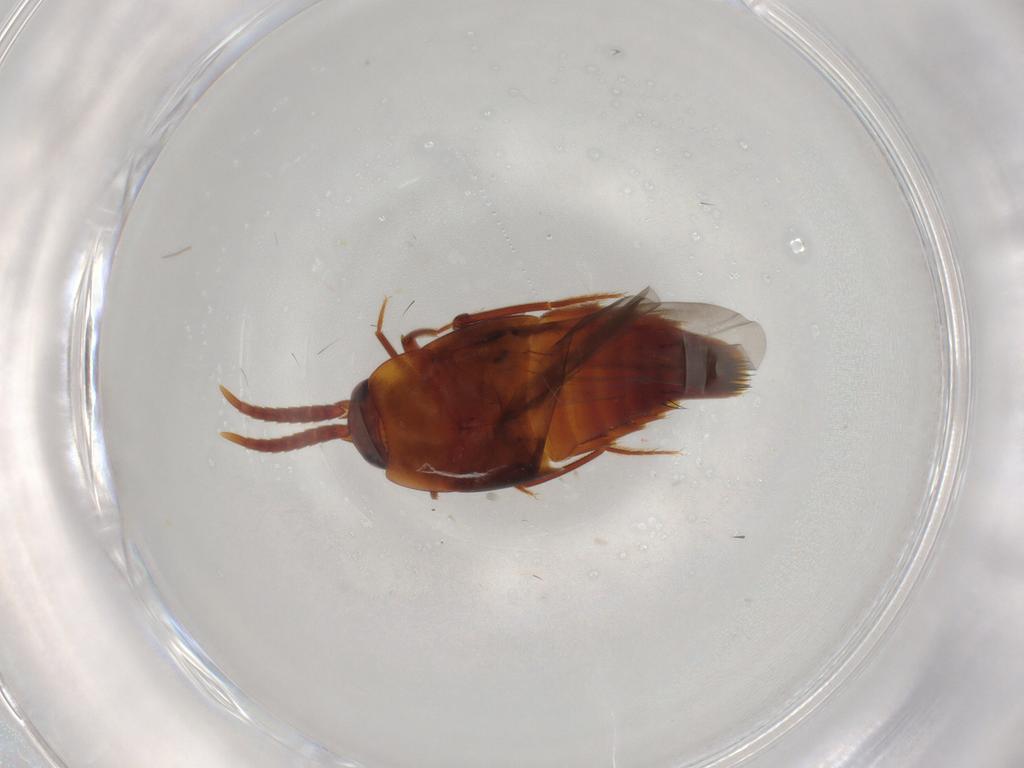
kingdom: Animalia
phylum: Arthropoda
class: Insecta
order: Coleoptera
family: Staphylinidae
